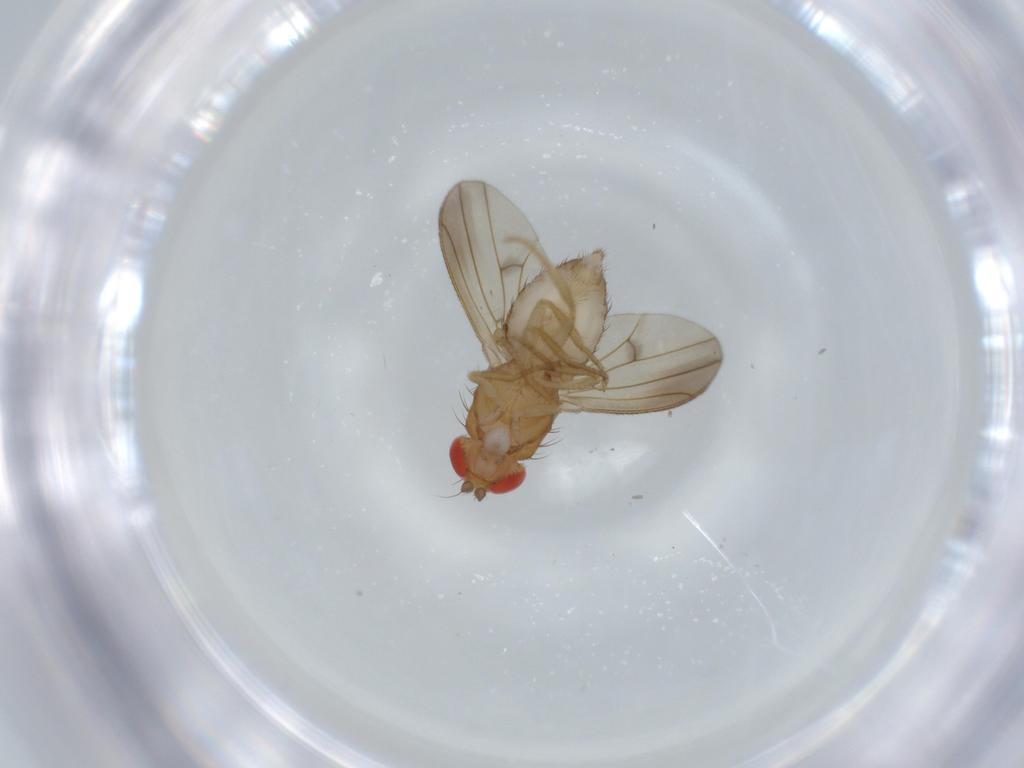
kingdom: Animalia
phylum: Arthropoda
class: Insecta
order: Diptera
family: Drosophilidae
